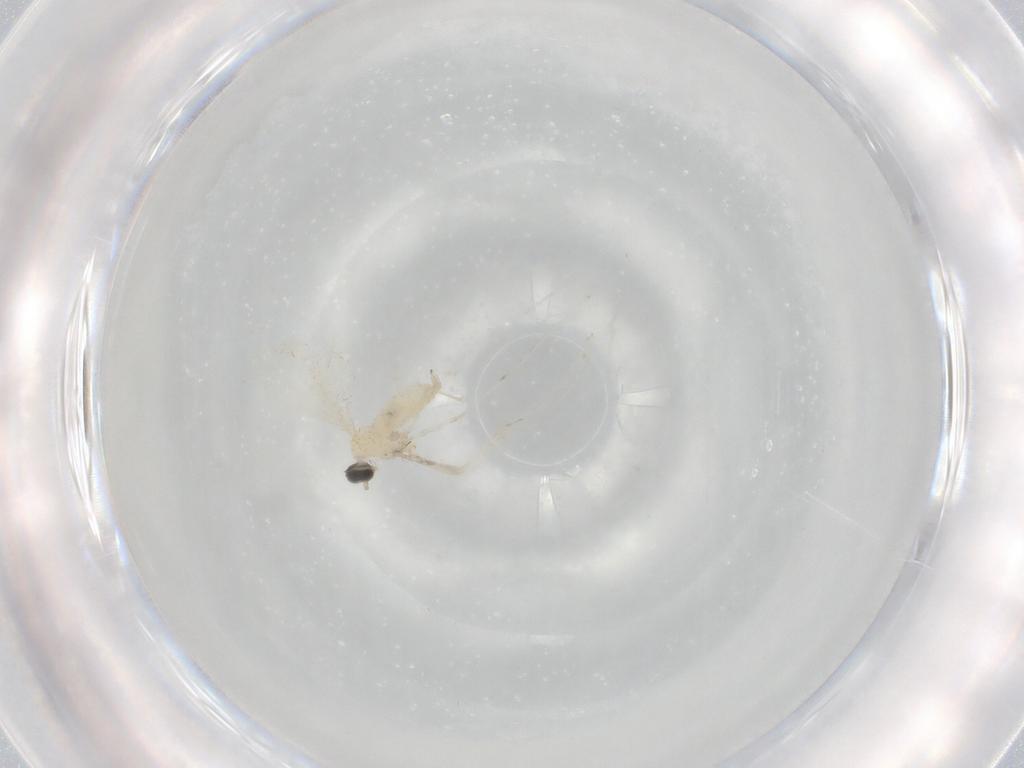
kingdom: Animalia
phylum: Arthropoda
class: Insecta
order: Diptera
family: Cecidomyiidae
